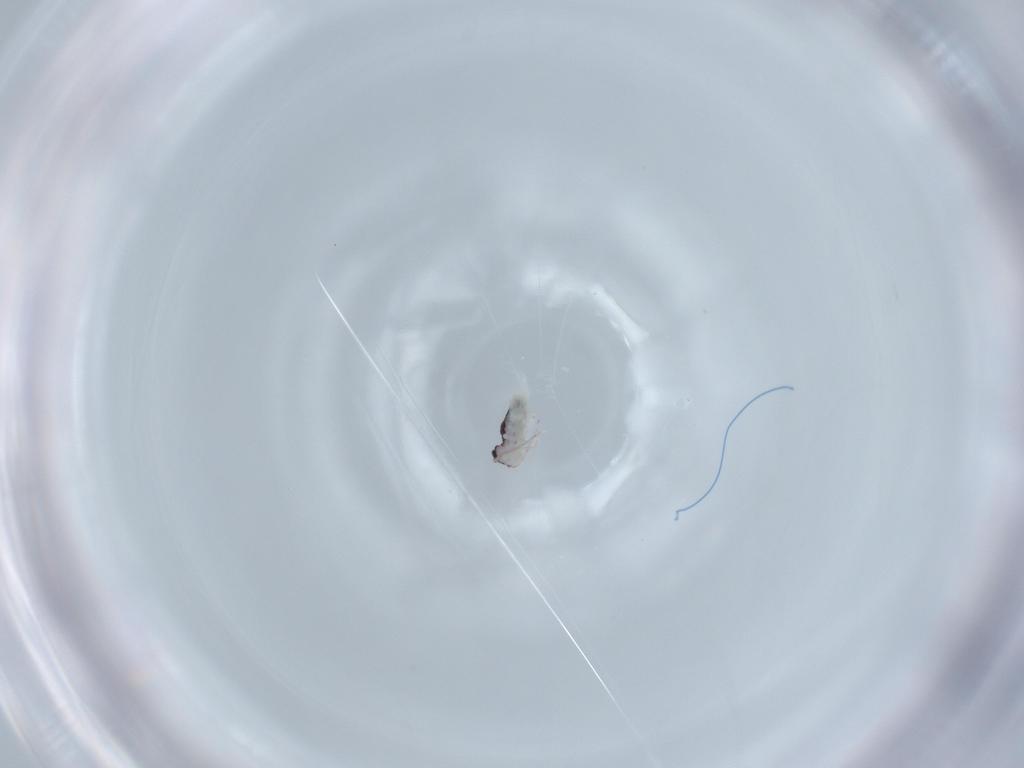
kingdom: Animalia
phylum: Arthropoda
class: Collembola
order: Symphypleona
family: Bourletiellidae
